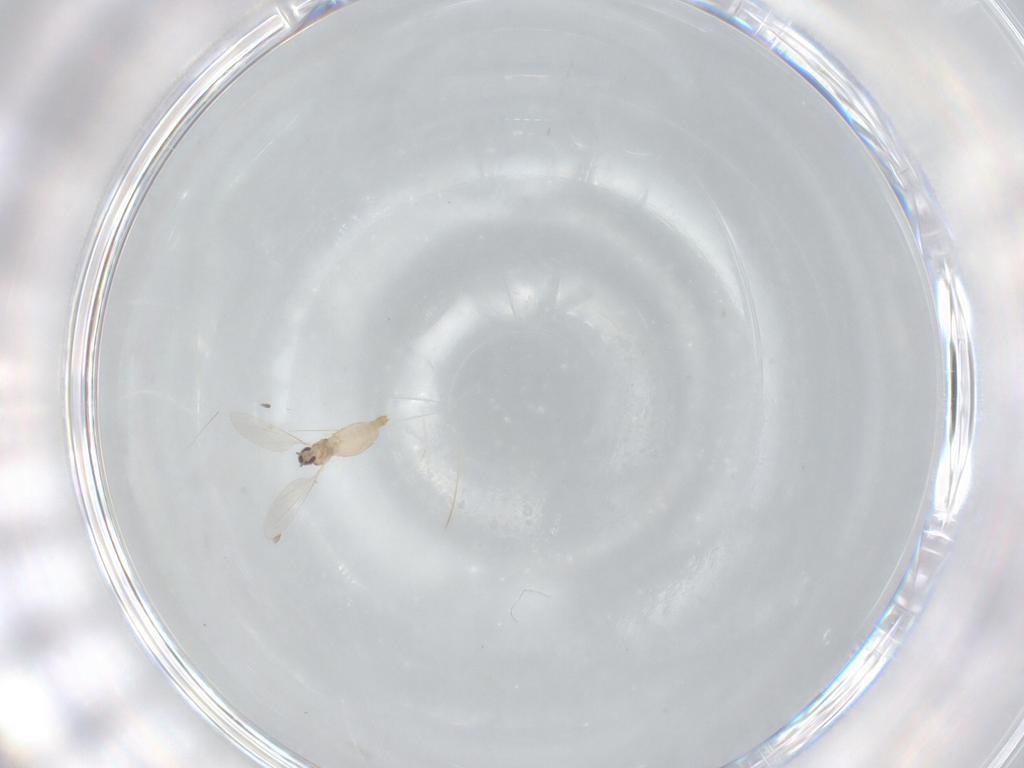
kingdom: Animalia
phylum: Arthropoda
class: Insecta
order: Diptera
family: Cecidomyiidae
